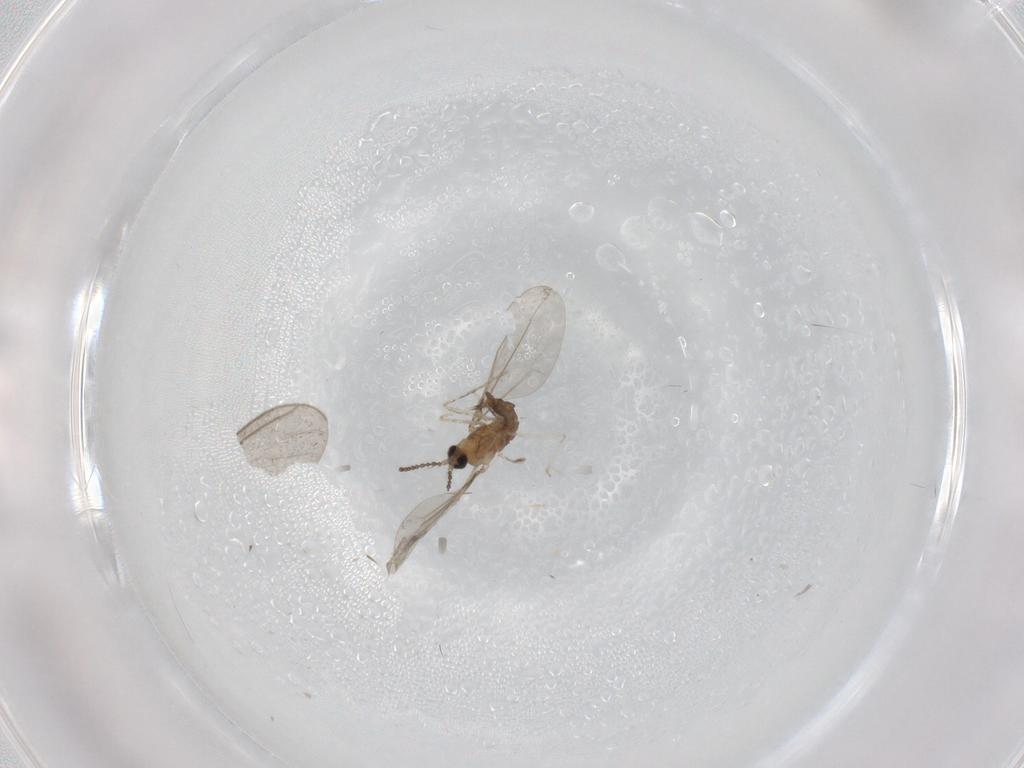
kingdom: Animalia
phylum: Arthropoda
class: Insecta
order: Diptera
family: Cecidomyiidae
